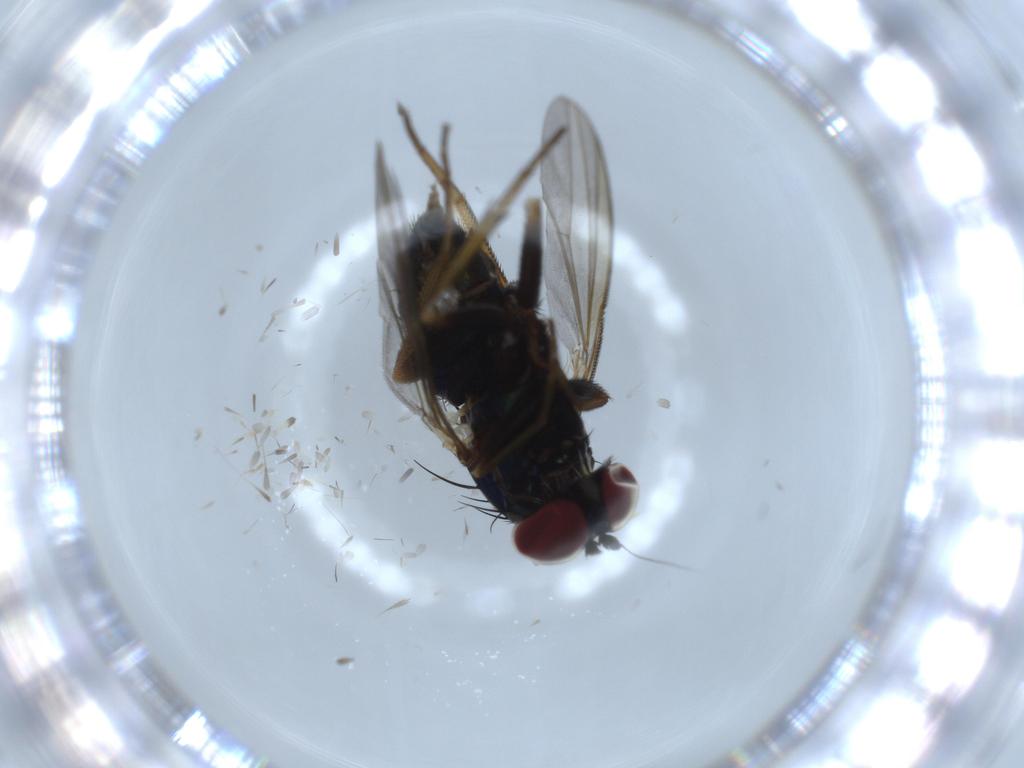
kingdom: Animalia
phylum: Arthropoda
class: Insecta
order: Diptera
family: Dolichopodidae
